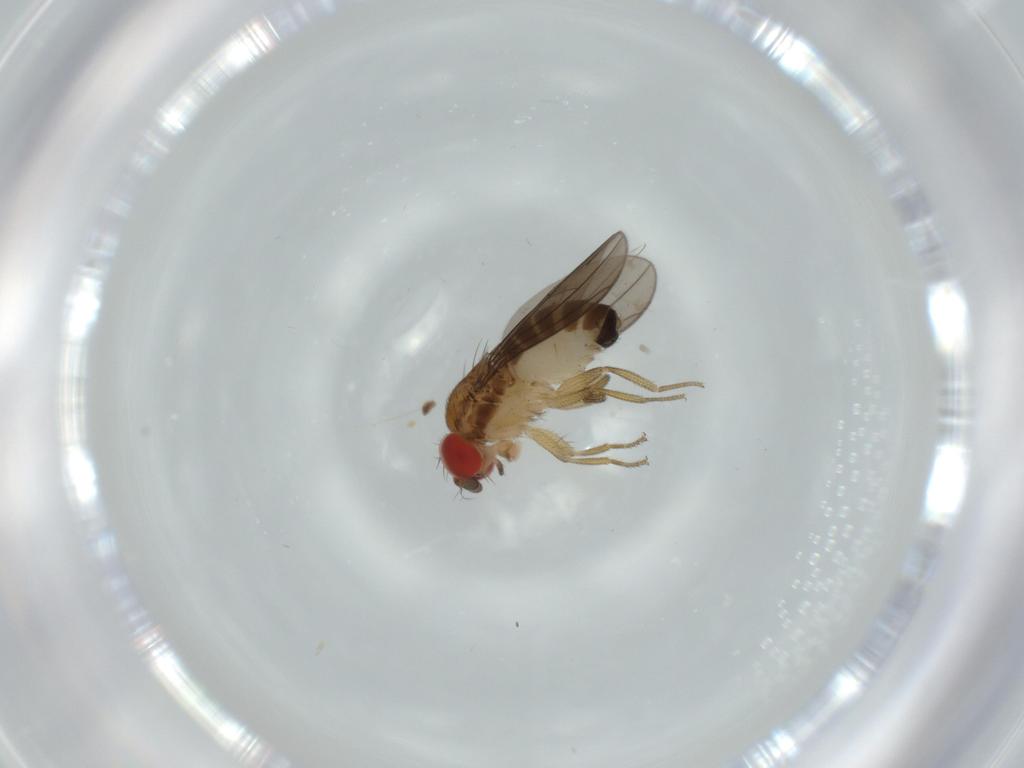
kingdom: Animalia
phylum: Arthropoda
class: Insecta
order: Diptera
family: Drosophilidae
